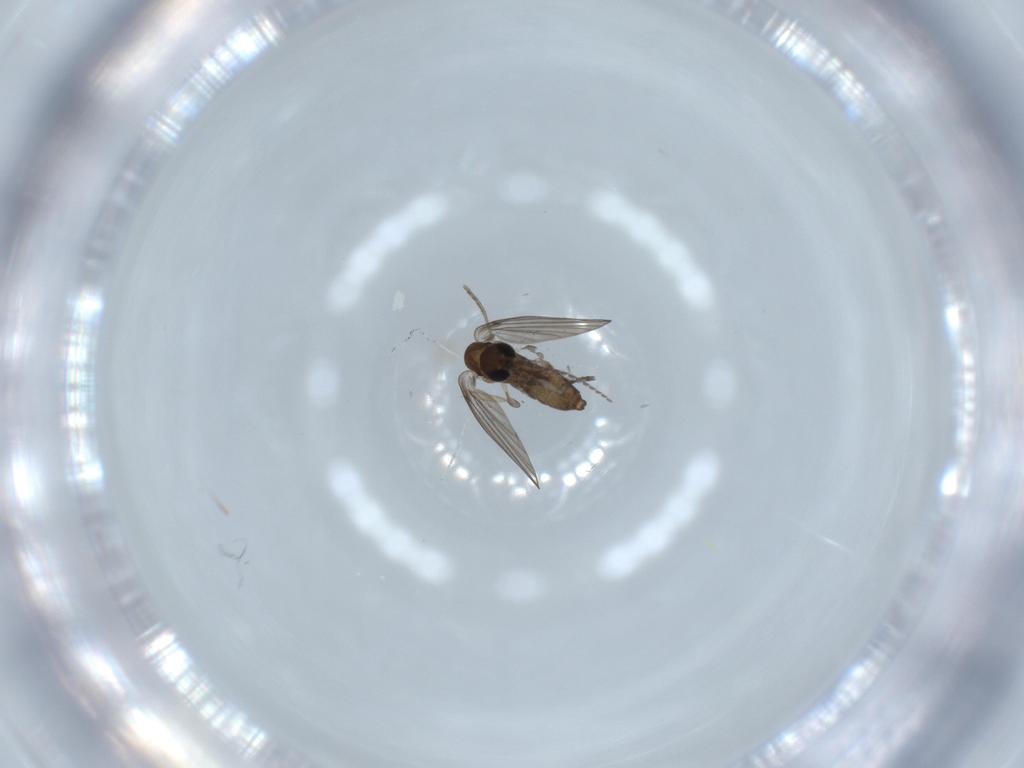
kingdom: Animalia
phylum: Arthropoda
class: Insecta
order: Diptera
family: Psychodidae
